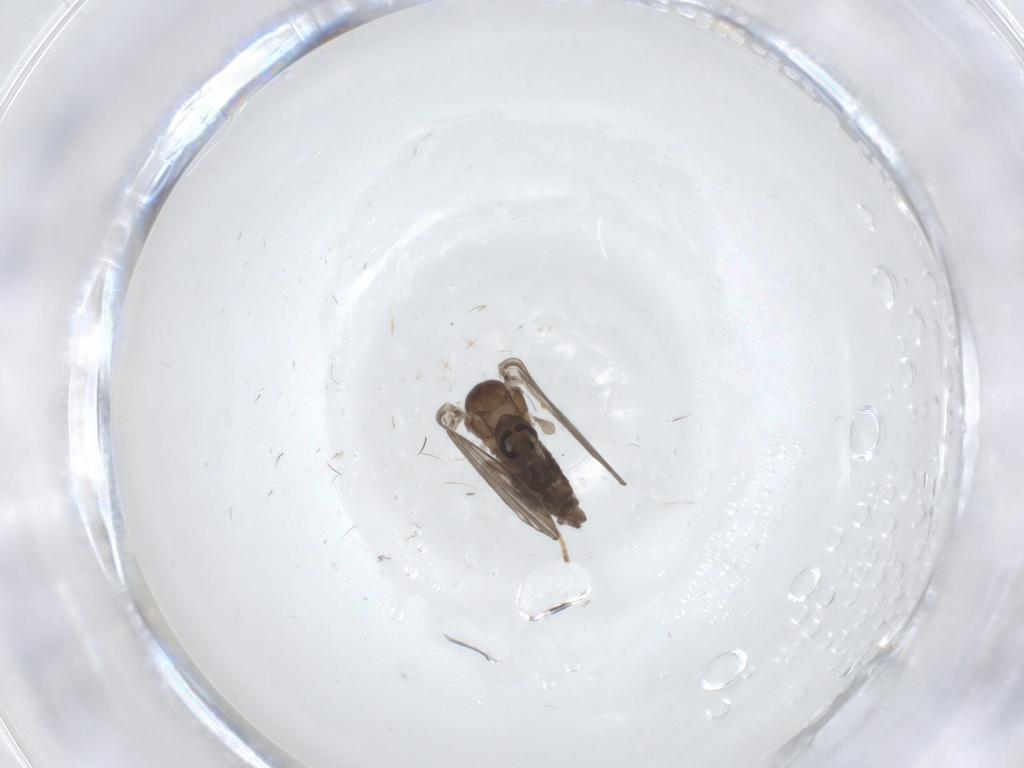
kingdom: Animalia
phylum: Arthropoda
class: Insecta
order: Diptera
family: Psychodidae
